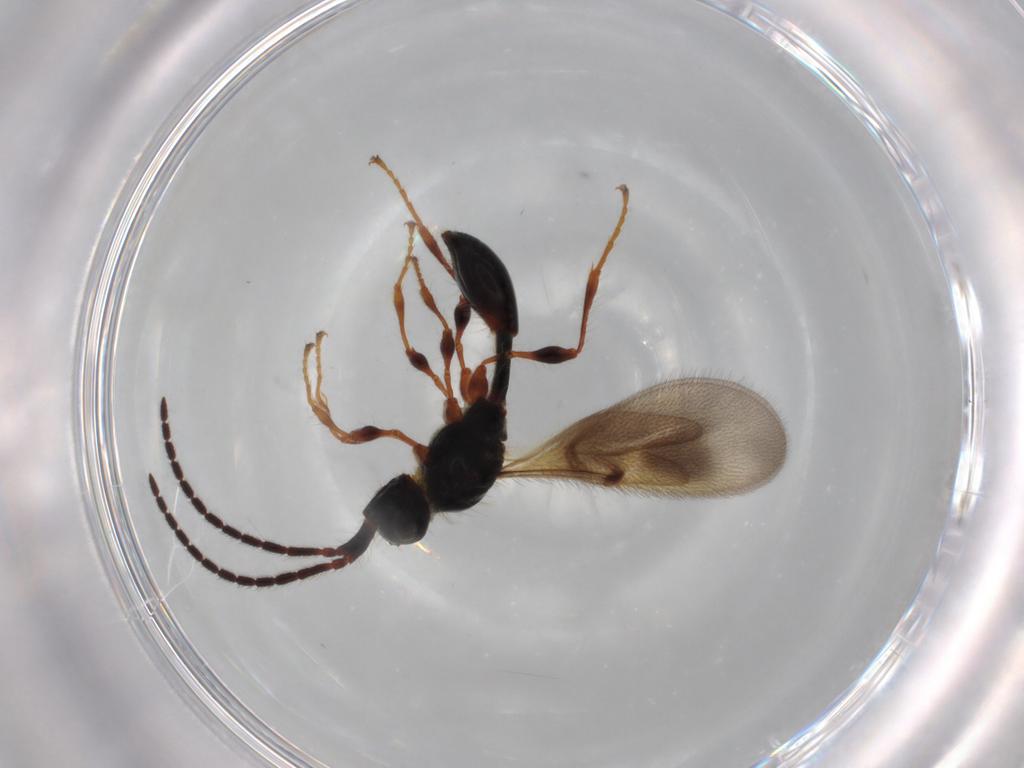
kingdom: Animalia
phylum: Arthropoda
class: Insecta
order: Hymenoptera
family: Diapriidae
